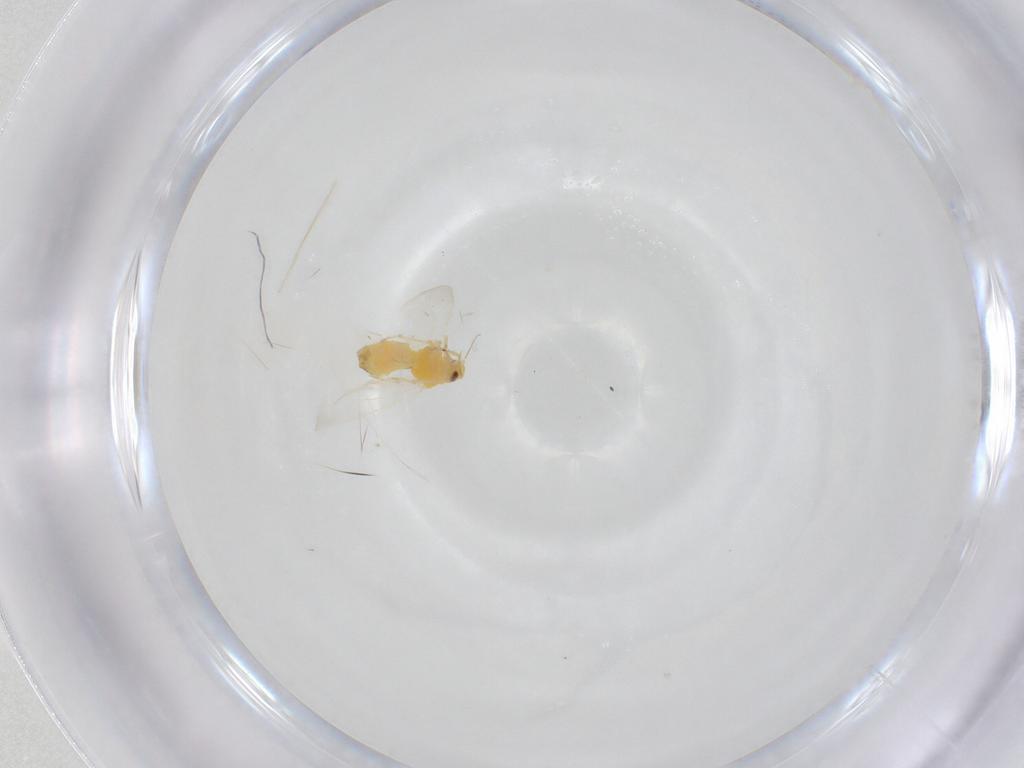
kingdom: Animalia
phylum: Arthropoda
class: Insecta
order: Hemiptera
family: Aleyrodidae
